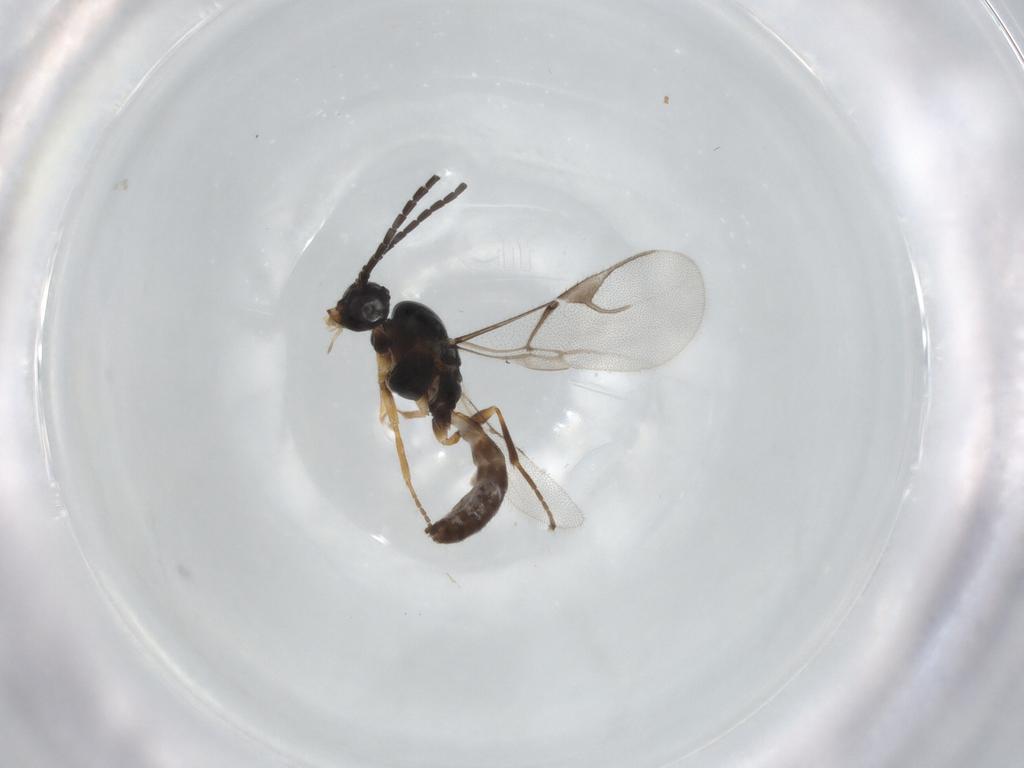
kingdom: Animalia
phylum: Arthropoda
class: Insecta
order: Hymenoptera
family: Braconidae
